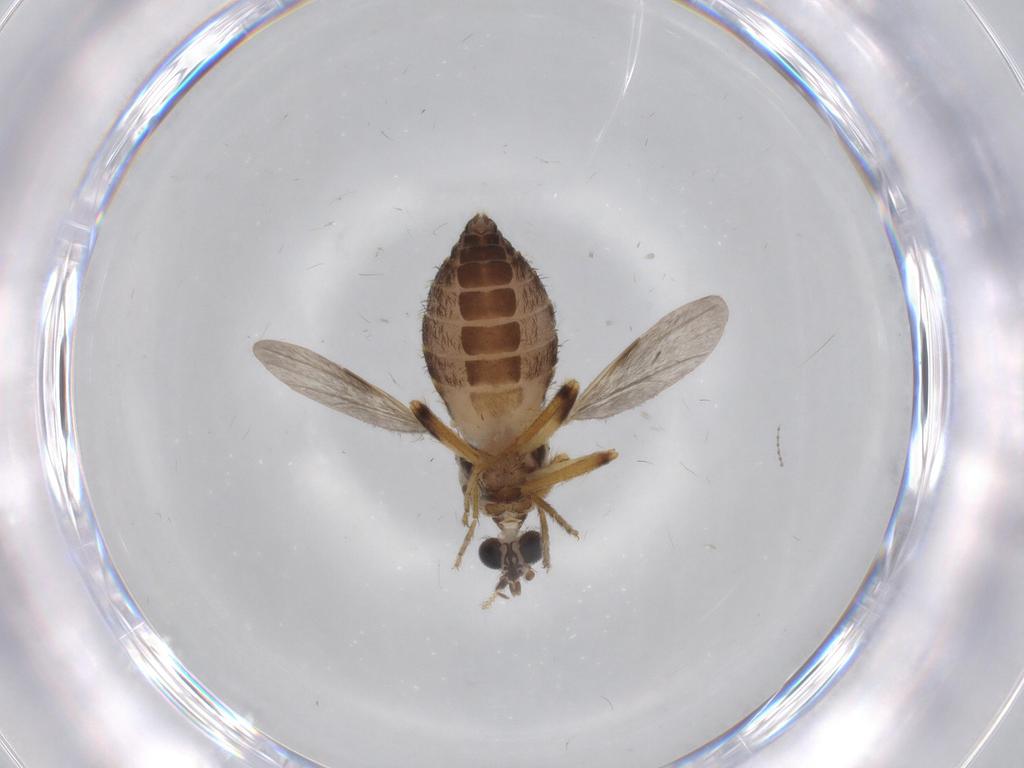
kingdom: Animalia
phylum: Arthropoda
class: Insecta
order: Diptera
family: Ceratopogonidae
